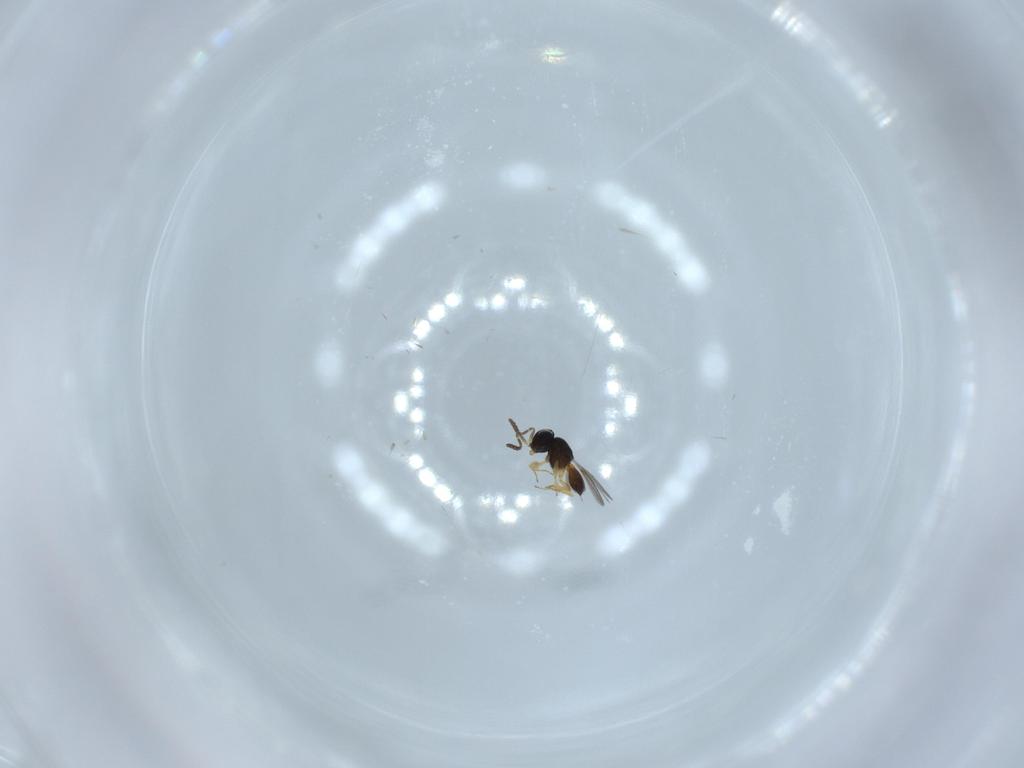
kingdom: Animalia
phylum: Arthropoda
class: Insecta
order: Hymenoptera
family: Scelionidae
